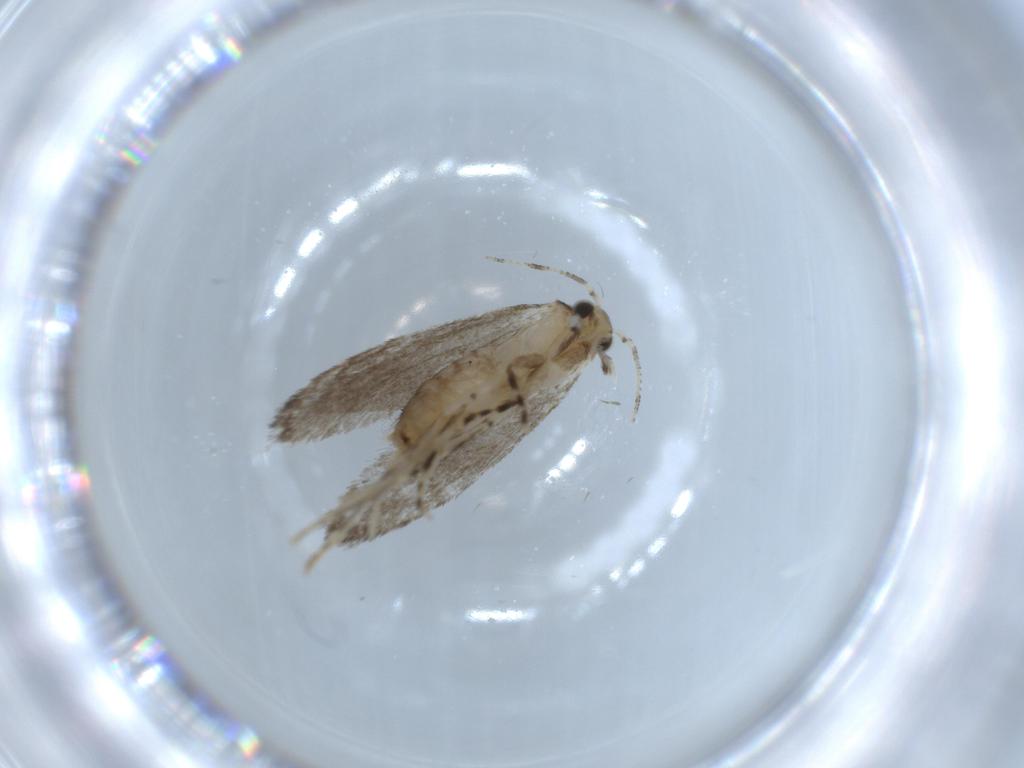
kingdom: Animalia
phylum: Arthropoda
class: Insecta
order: Lepidoptera
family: Tineidae
